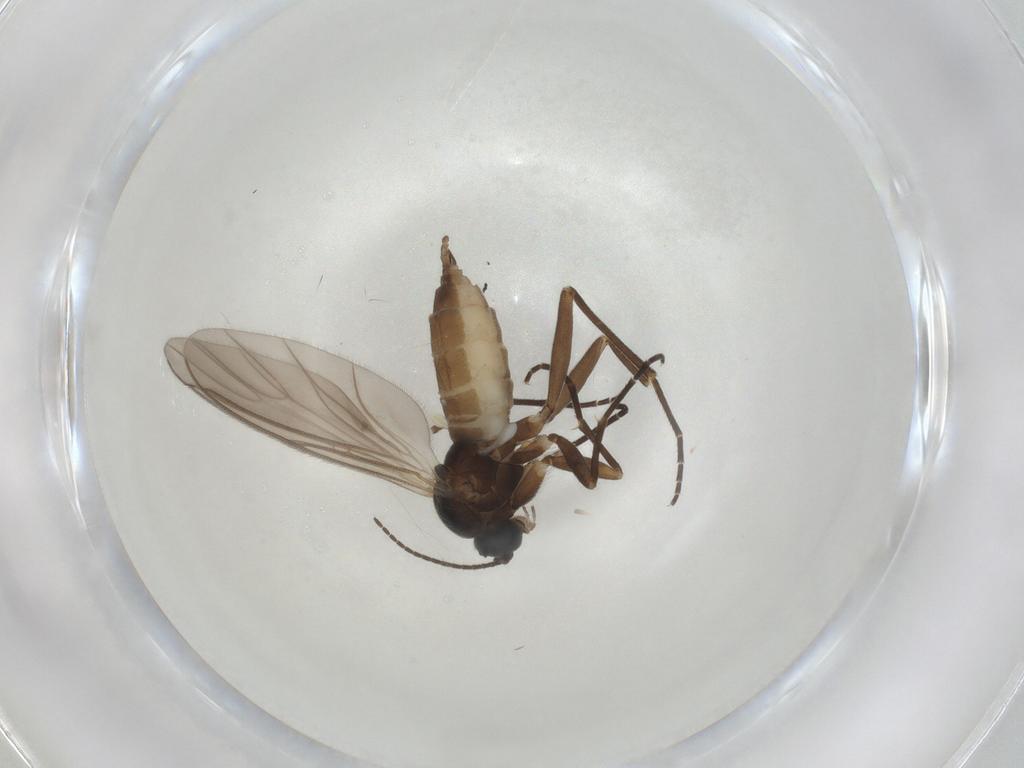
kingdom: Animalia
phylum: Arthropoda
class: Insecta
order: Diptera
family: Sciaridae
